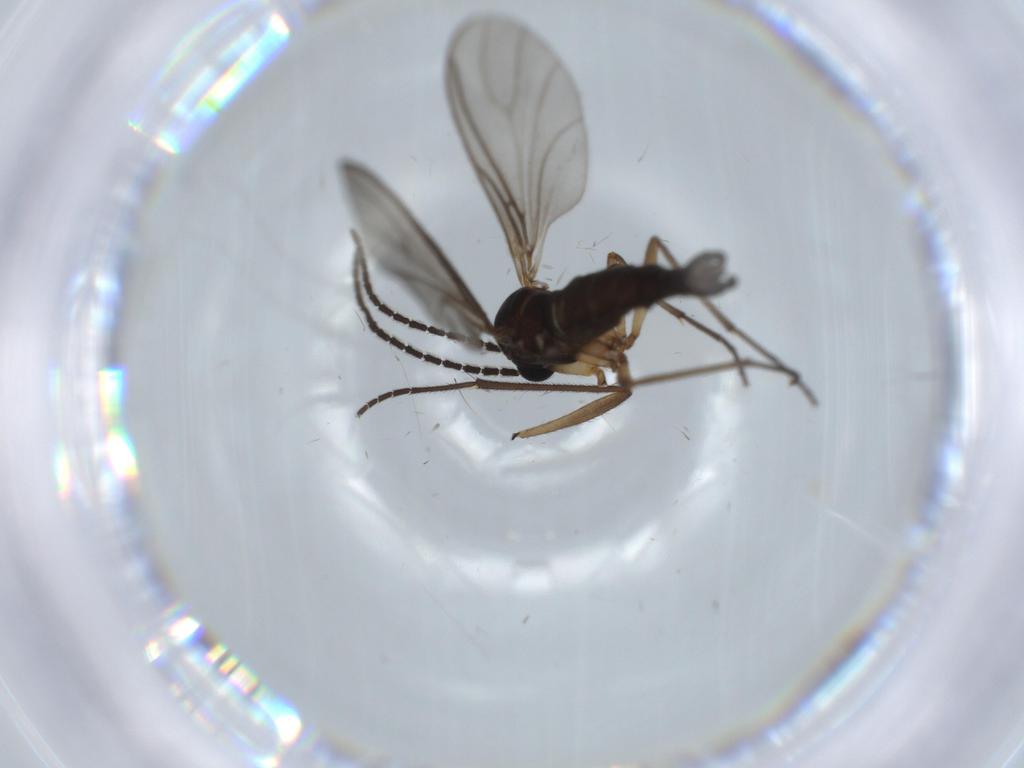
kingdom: Animalia
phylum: Arthropoda
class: Insecta
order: Diptera
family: Sciaridae
